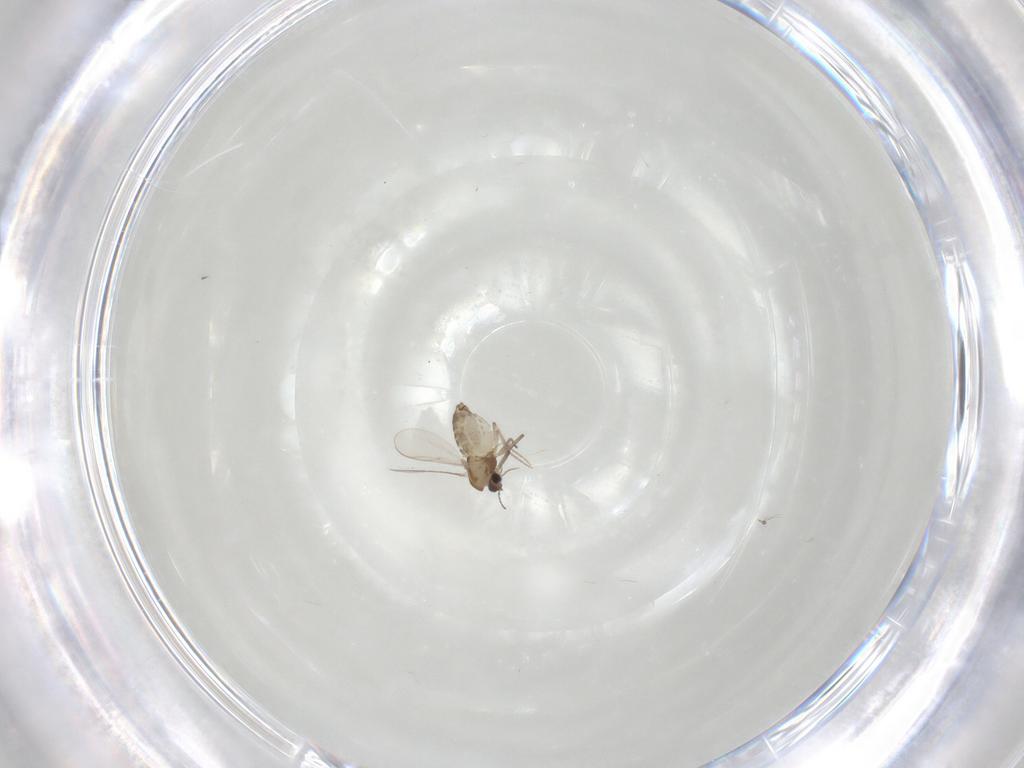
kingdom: Animalia
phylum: Arthropoda
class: Insecta
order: Diptera
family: Chironomidae
